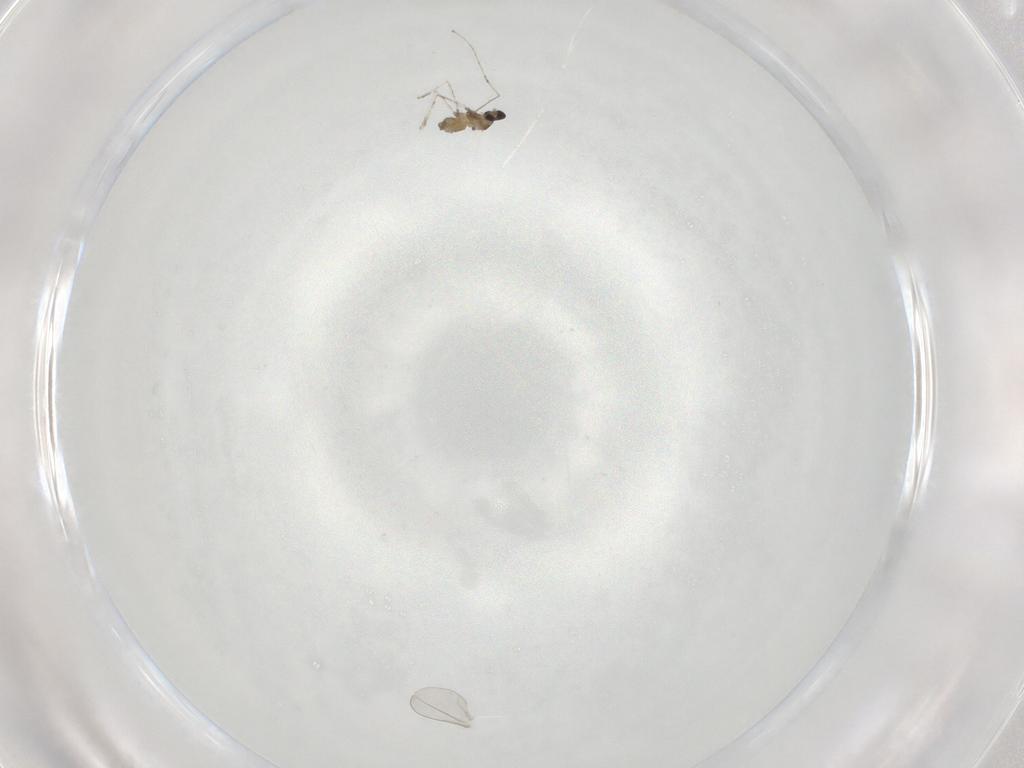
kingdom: Animalia
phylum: Arthropoda
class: Insecta
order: Diptera
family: Cecidomyiidae
